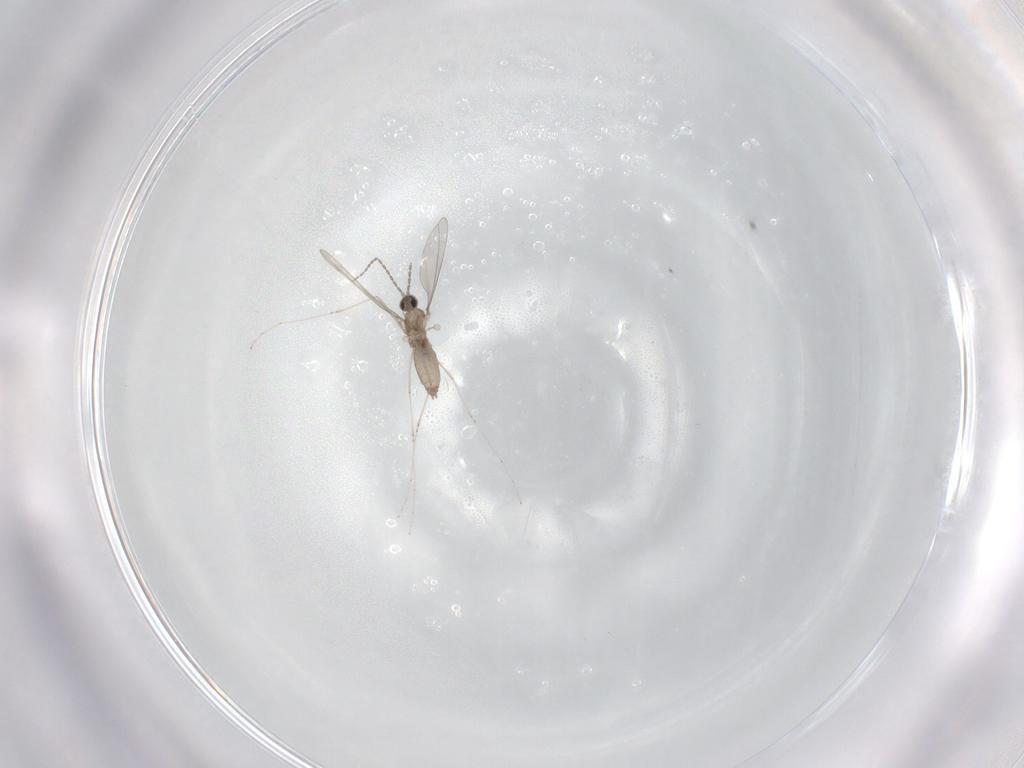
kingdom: Animalia
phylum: Arthropoda
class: Insecta
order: Diptera
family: Cecidomyiidae
